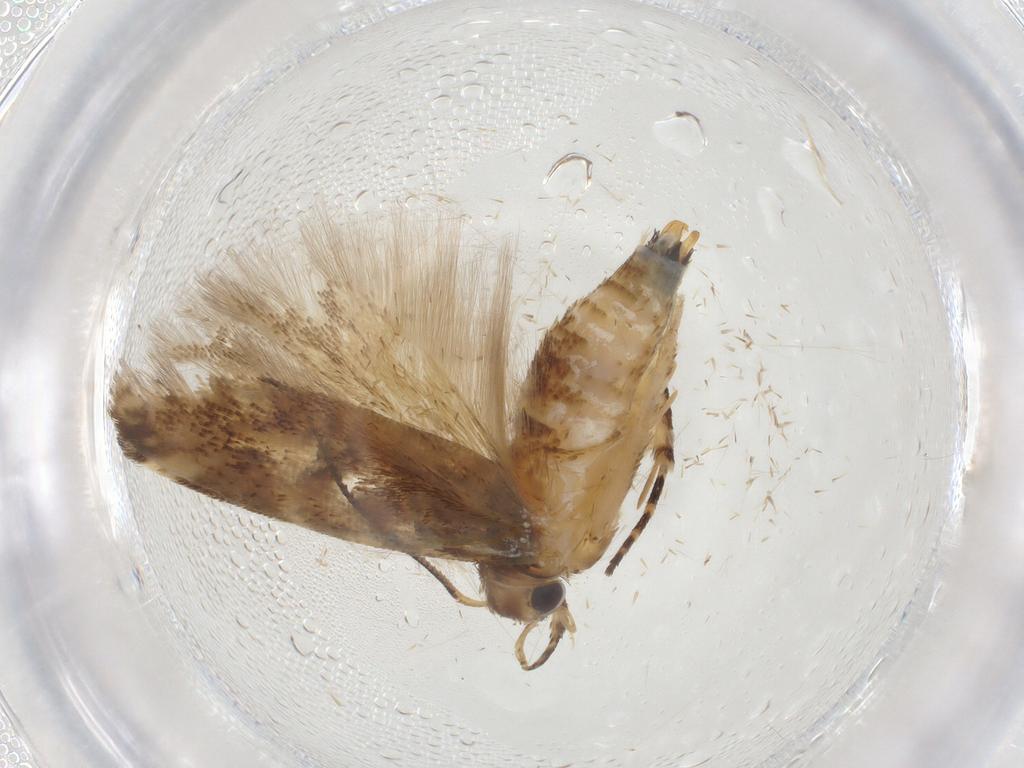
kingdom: Animalia
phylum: Arthropoda
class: Insecta
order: Lepidoptera
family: Gelechiidae
